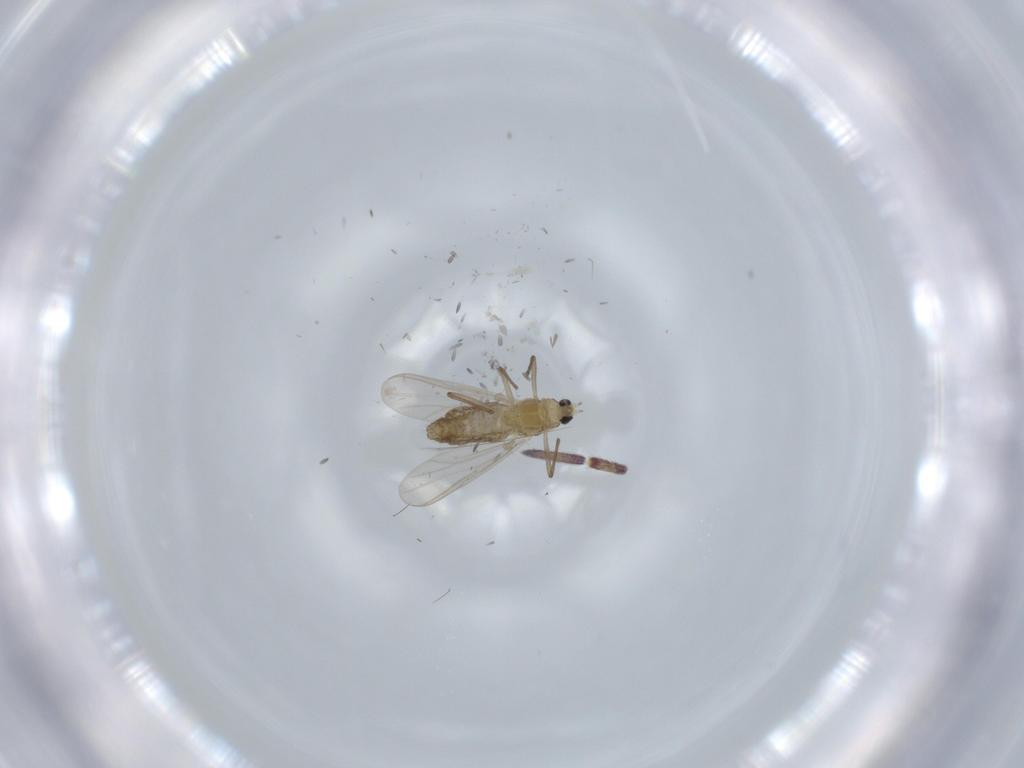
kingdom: Animalia
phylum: Arthropoda
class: Insecta
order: Diptera
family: Chironomidae
